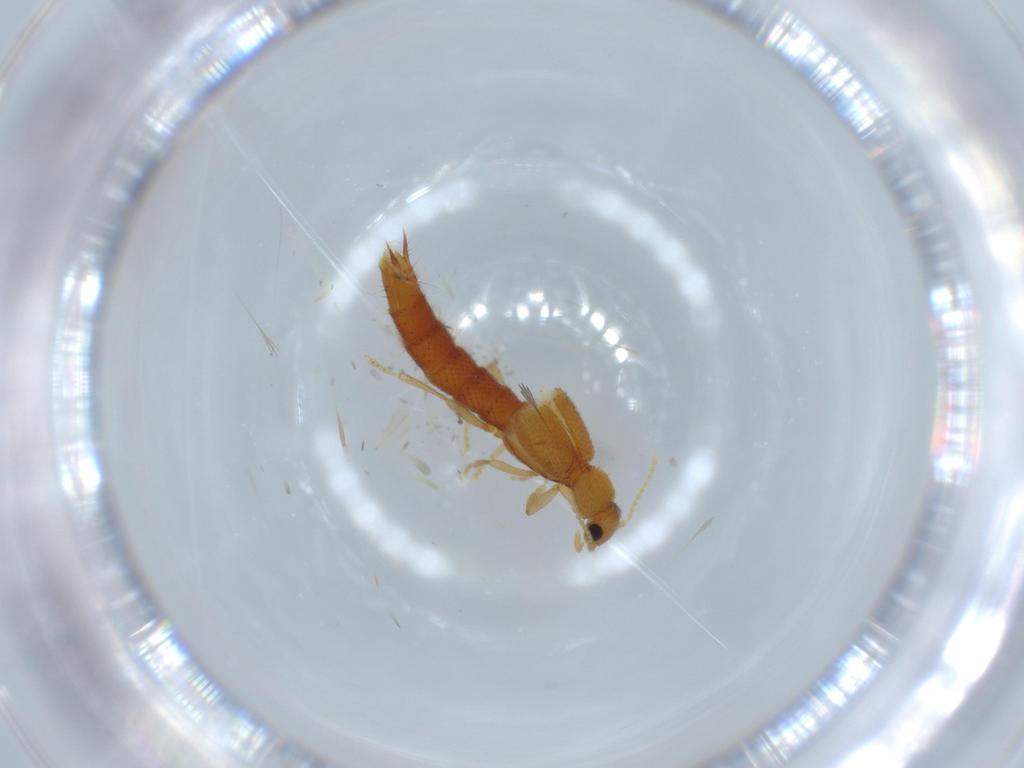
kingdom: Animalia
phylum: Arthropoda
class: Insecta
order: Coleoptera
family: Staphylinidae
